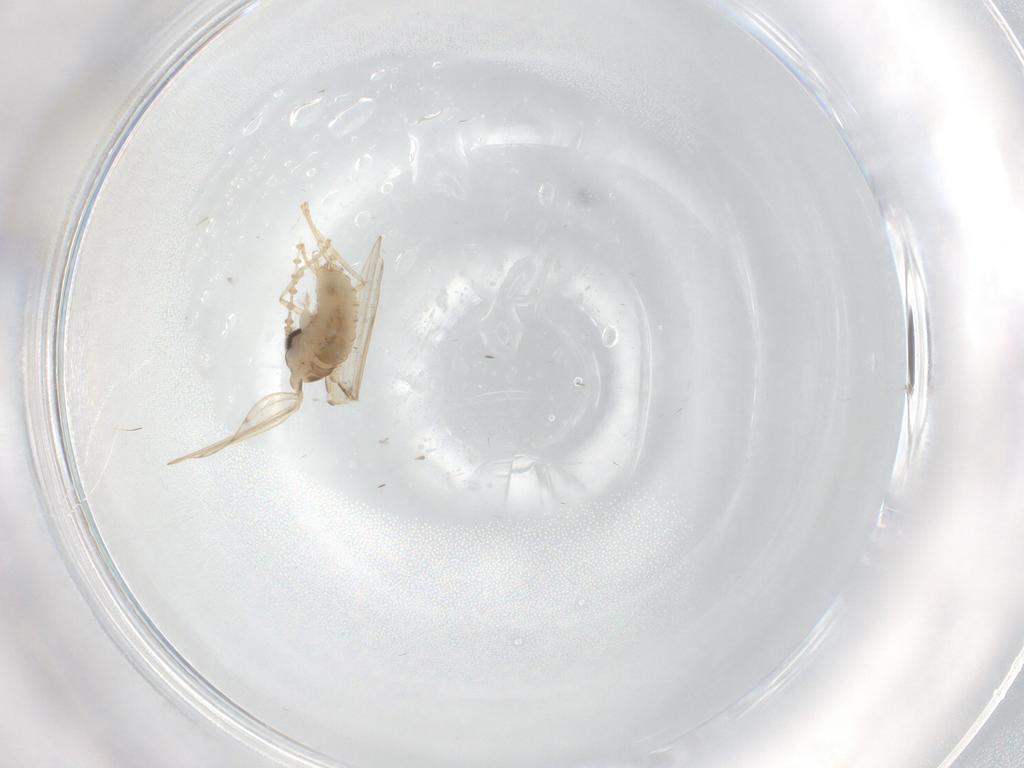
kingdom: Animalia
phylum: Arthropoda
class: Insecta
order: Diptera
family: Psychodidae
